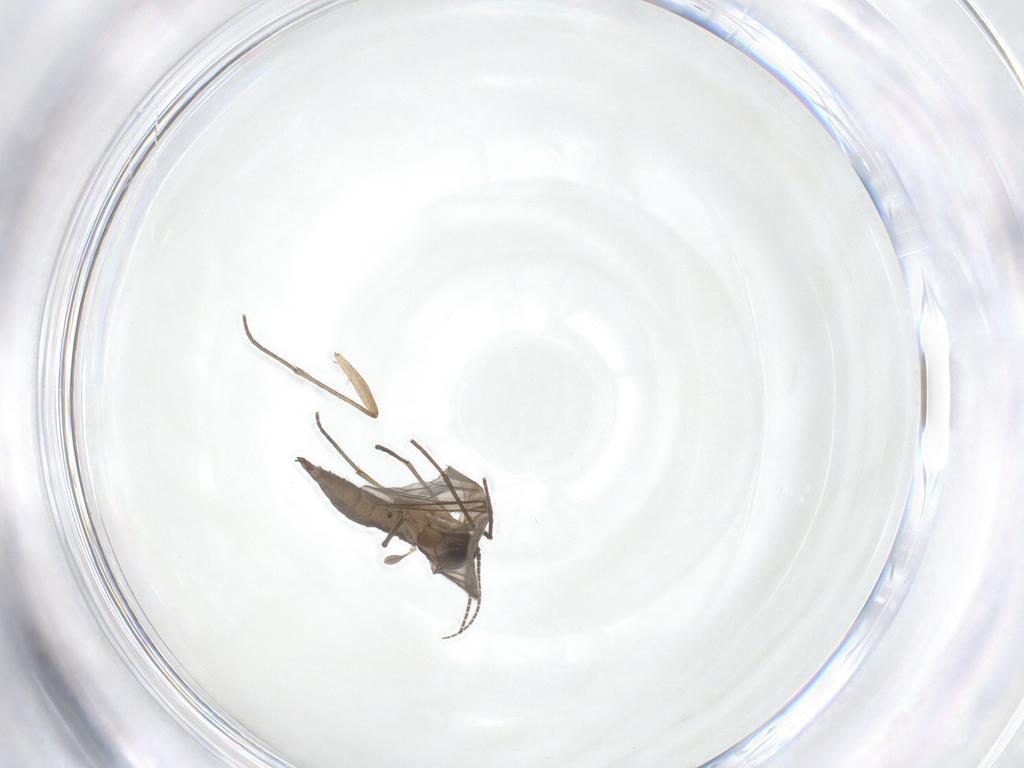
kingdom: Animalia
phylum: Arthropoda
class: Insecta
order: Diptera
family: Sciaridae
